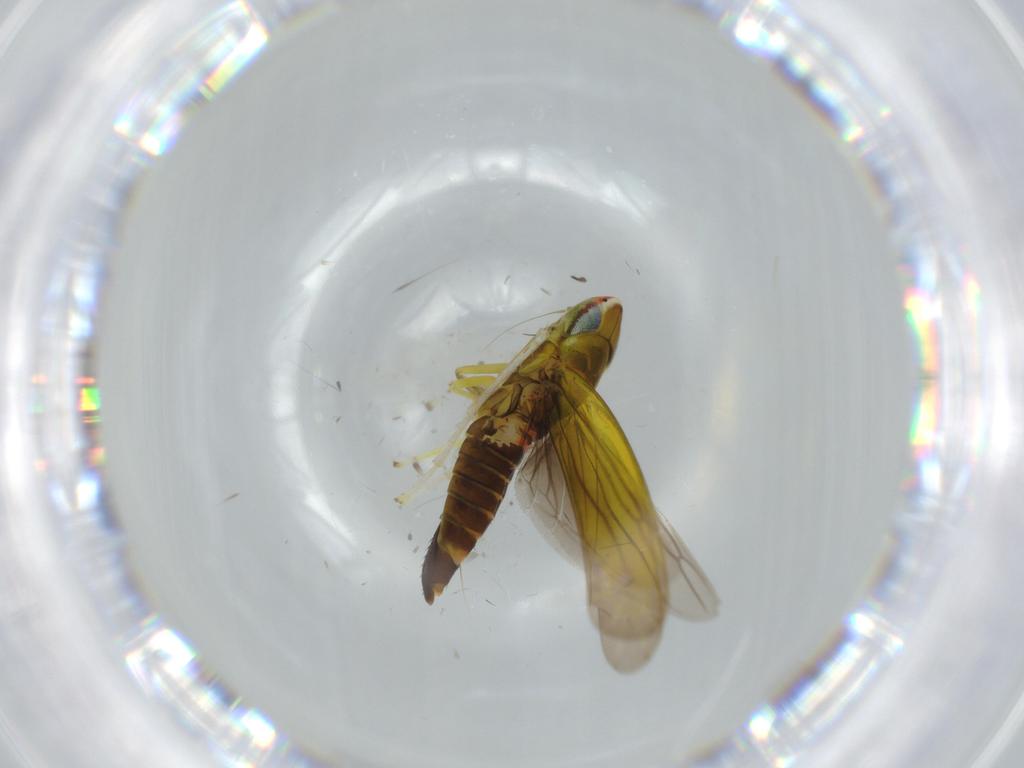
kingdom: Animalia
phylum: Arthropoda
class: Insecta
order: Hemiptera
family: Cicadellidae
